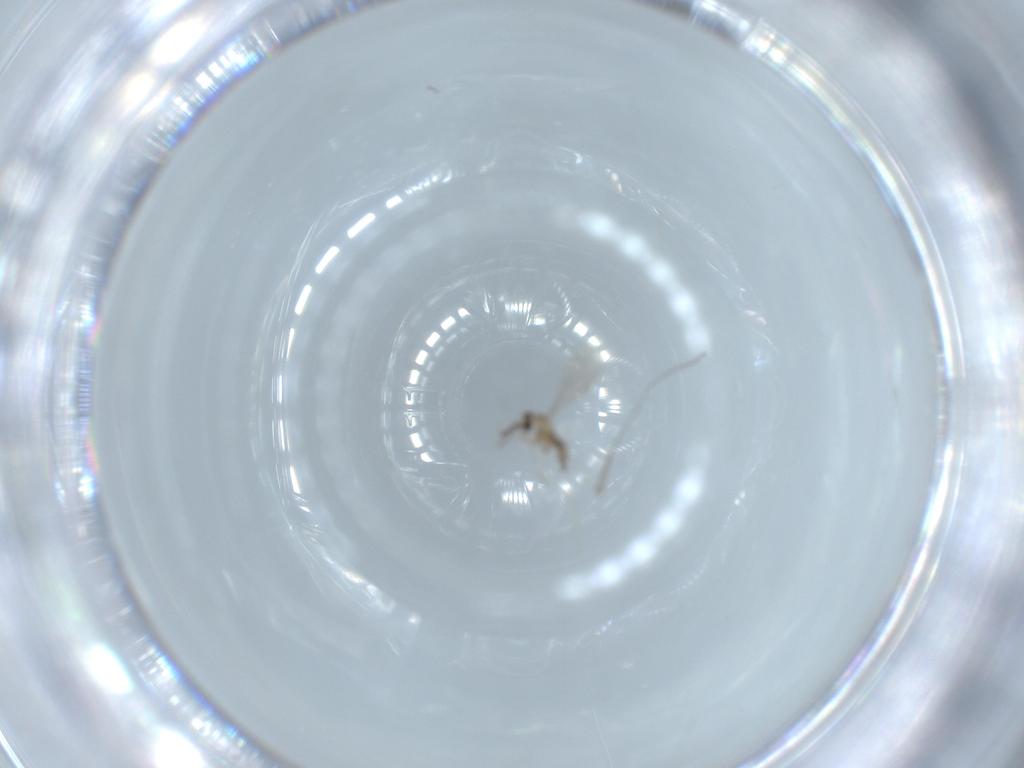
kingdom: Animalia
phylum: Arthropoda
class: Insecta
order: Diptera
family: Cecidomyiidae
